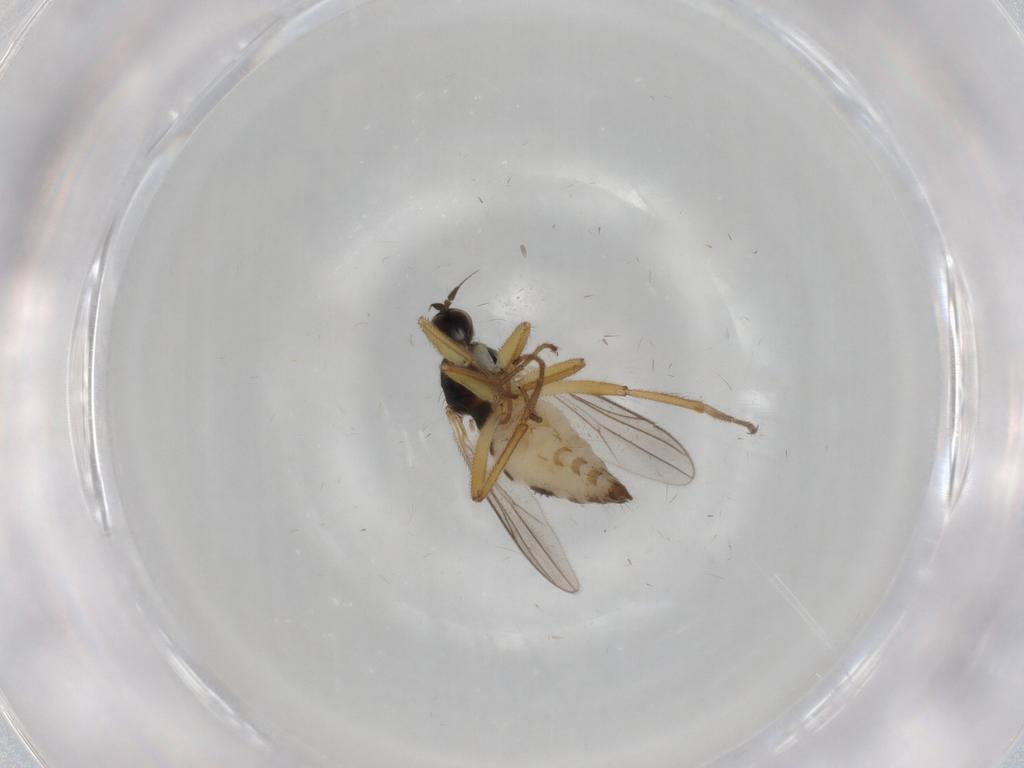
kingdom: Animalia
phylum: Arthropoda
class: Insecta
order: Diptera
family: Hybotidae
